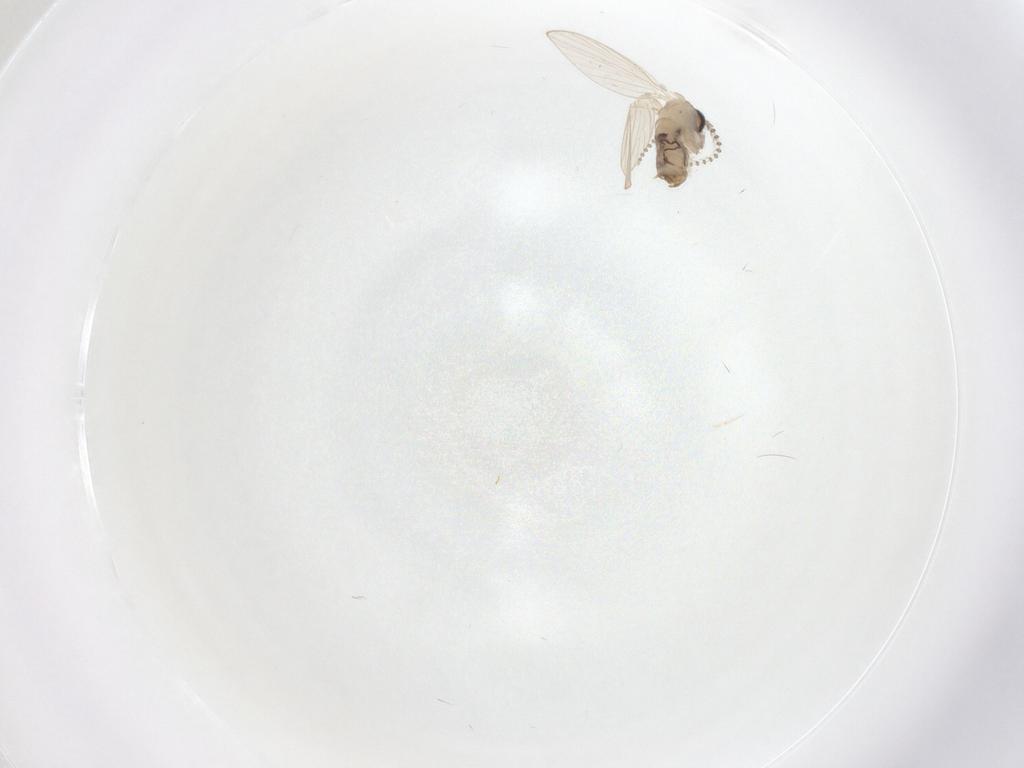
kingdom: Animalia
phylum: Arthropoda
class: Insecta
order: Diptera
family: Psychodidae
